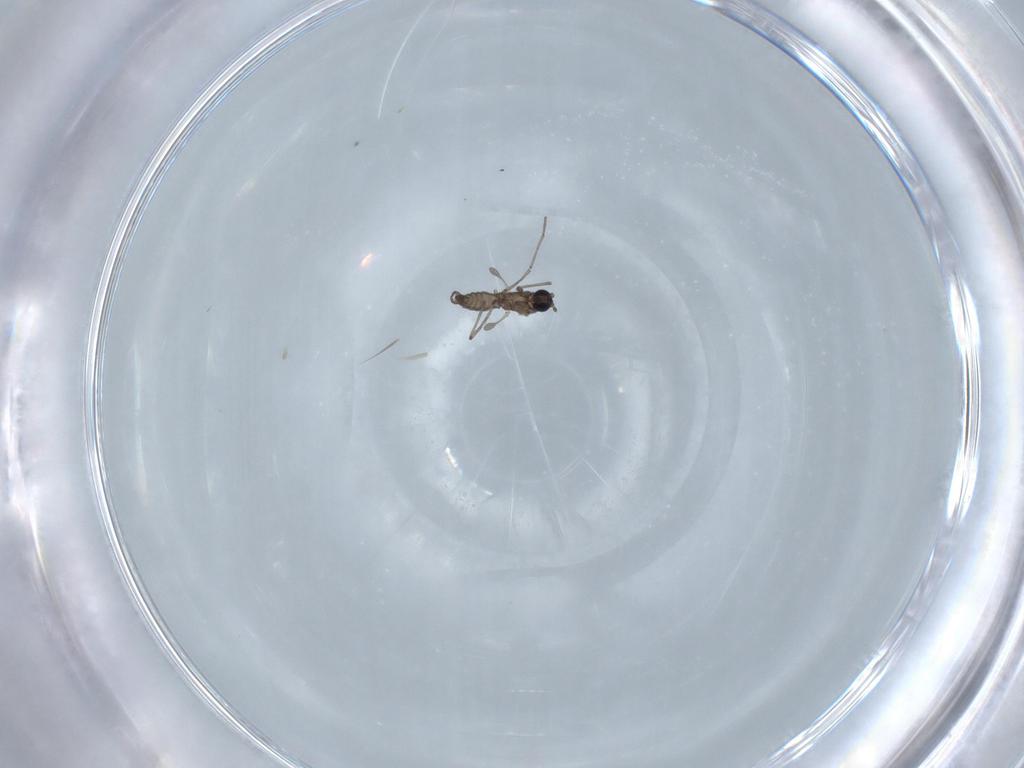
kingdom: Animalia
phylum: Arthropoda
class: Insecta
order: Diptera
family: Sciaridae
